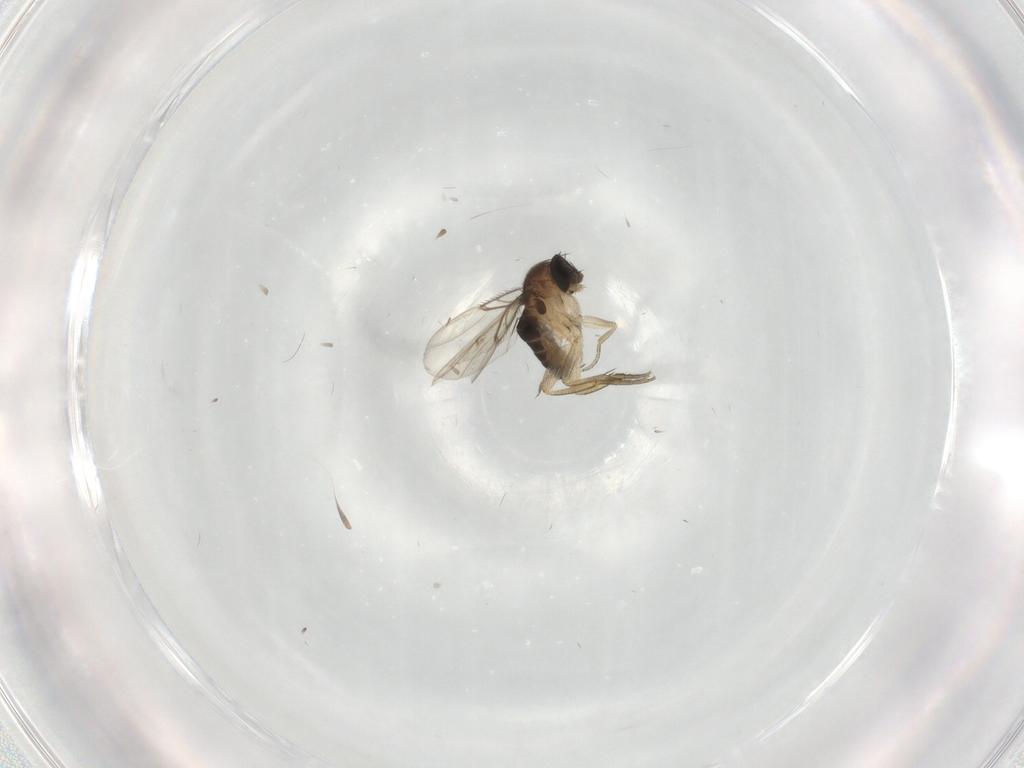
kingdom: Animalia
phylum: Arthropoda
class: Insecta
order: Diptera
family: Phoridae
